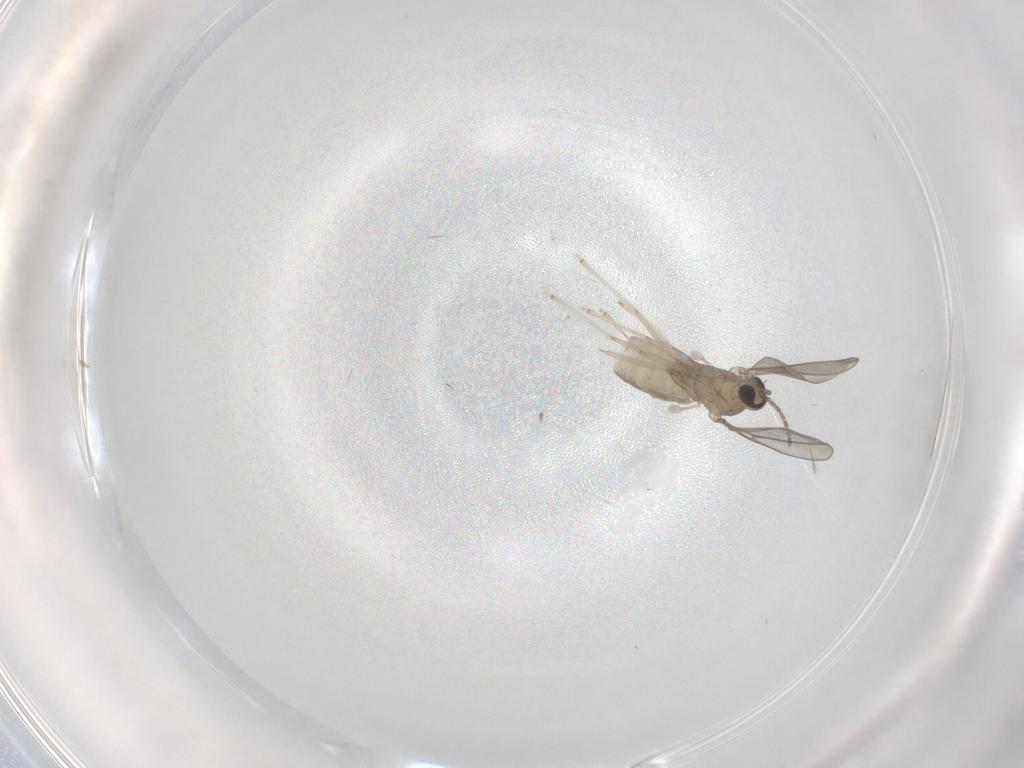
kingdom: Animalia
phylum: Arthropoda
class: Insecta
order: Diptera
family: Cecidomyiidae
